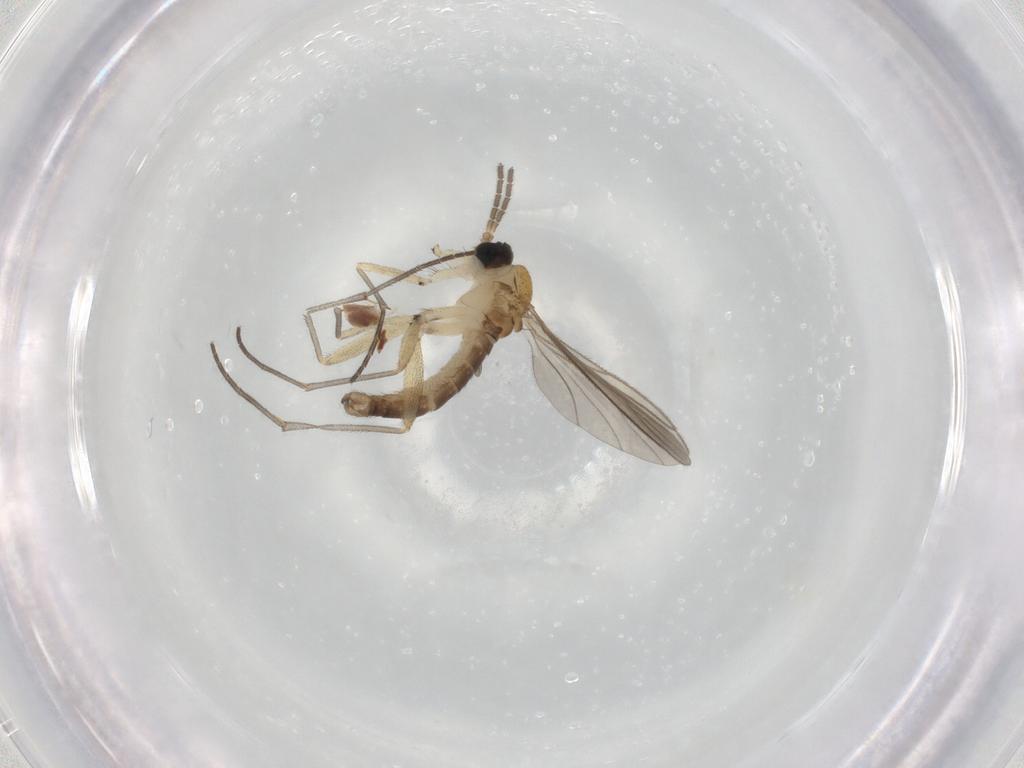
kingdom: Animalia
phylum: Arthropoda
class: Insecta
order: Diptera
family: Sciaridae
